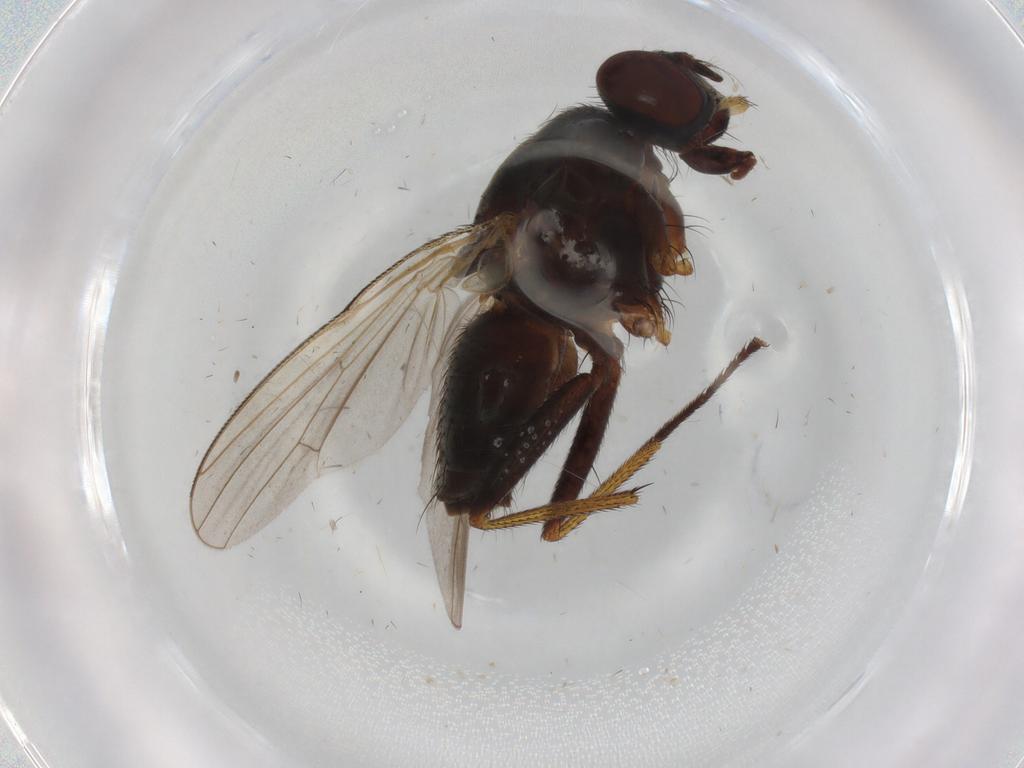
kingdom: Animalia
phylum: Arthropoda
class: Insecta
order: Diptera
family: Muscidae
